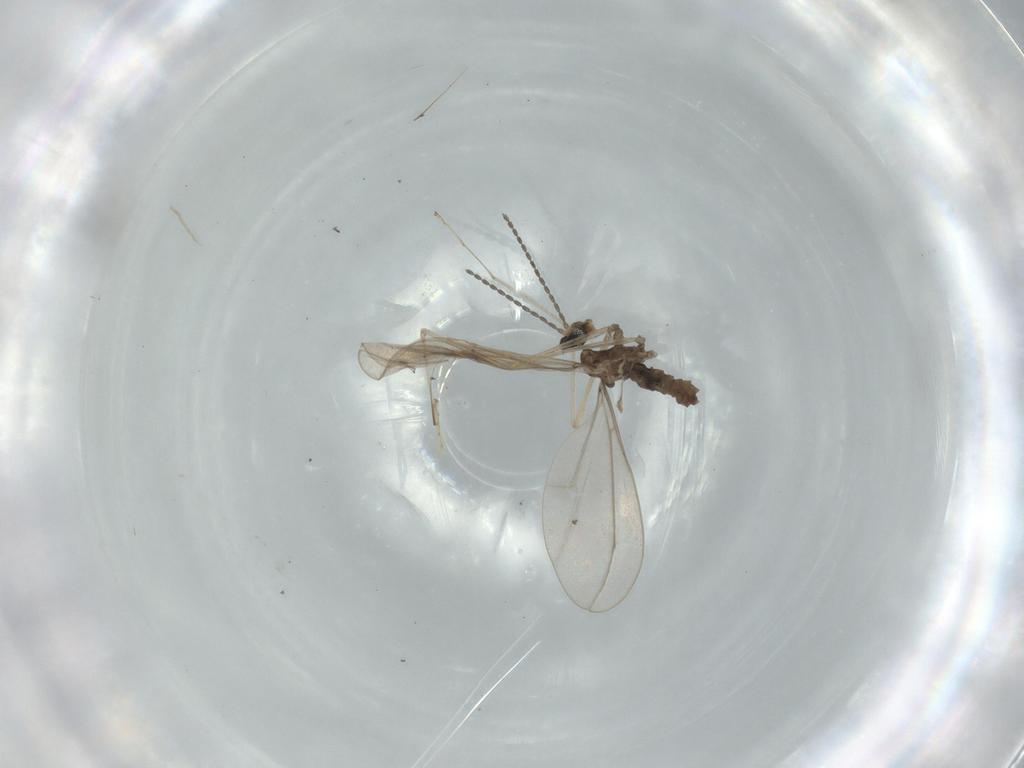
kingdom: Animalia
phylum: Arthropoda
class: Insecta
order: Diptera
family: Cecidomyiidae
